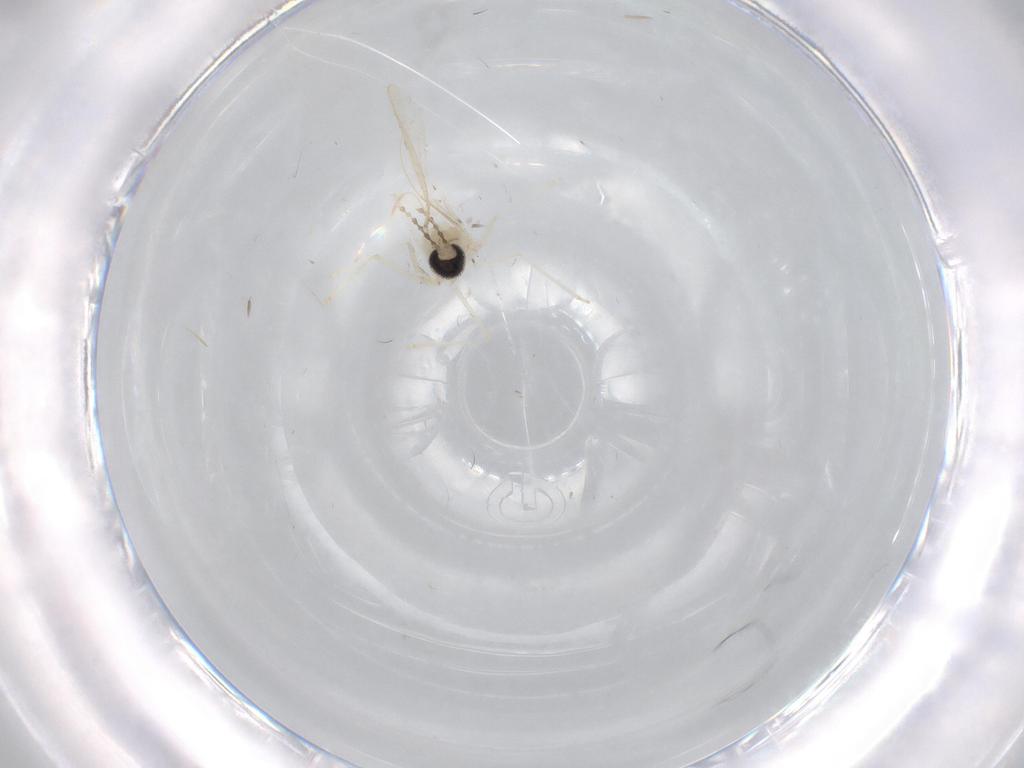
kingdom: Animalia
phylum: Arthropoda
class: Insecta
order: Diptera
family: Cecidomyiidae
